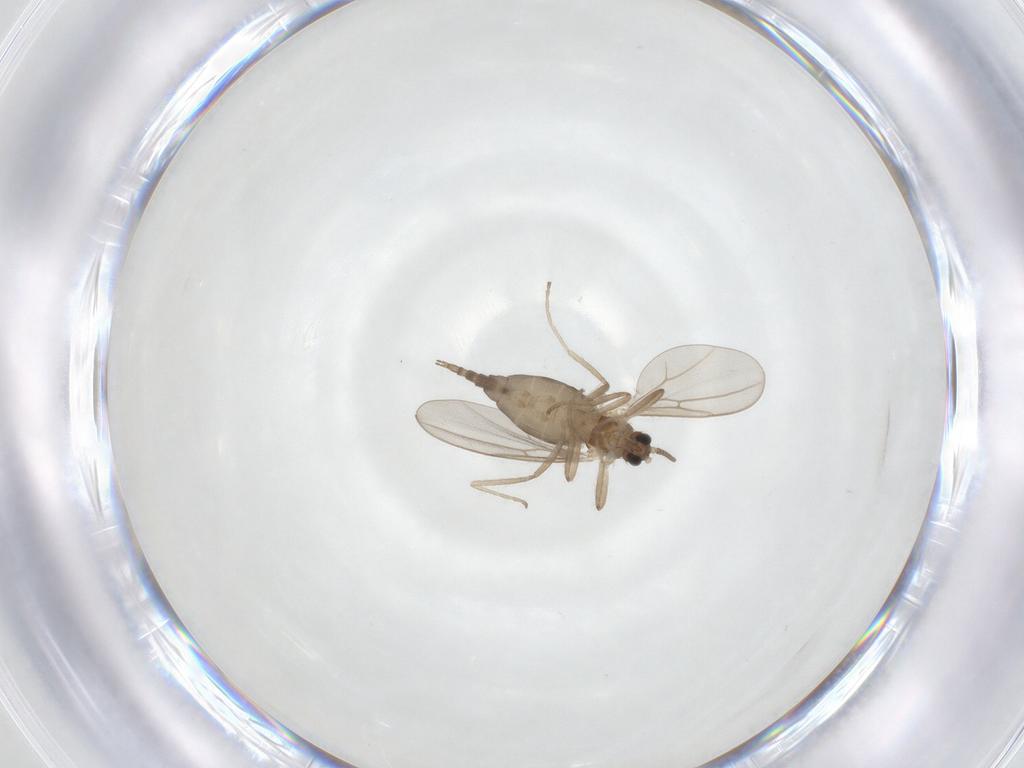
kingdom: Animalia
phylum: Arthropoda
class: Insecta
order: Diptera
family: Cecidomyiidae
